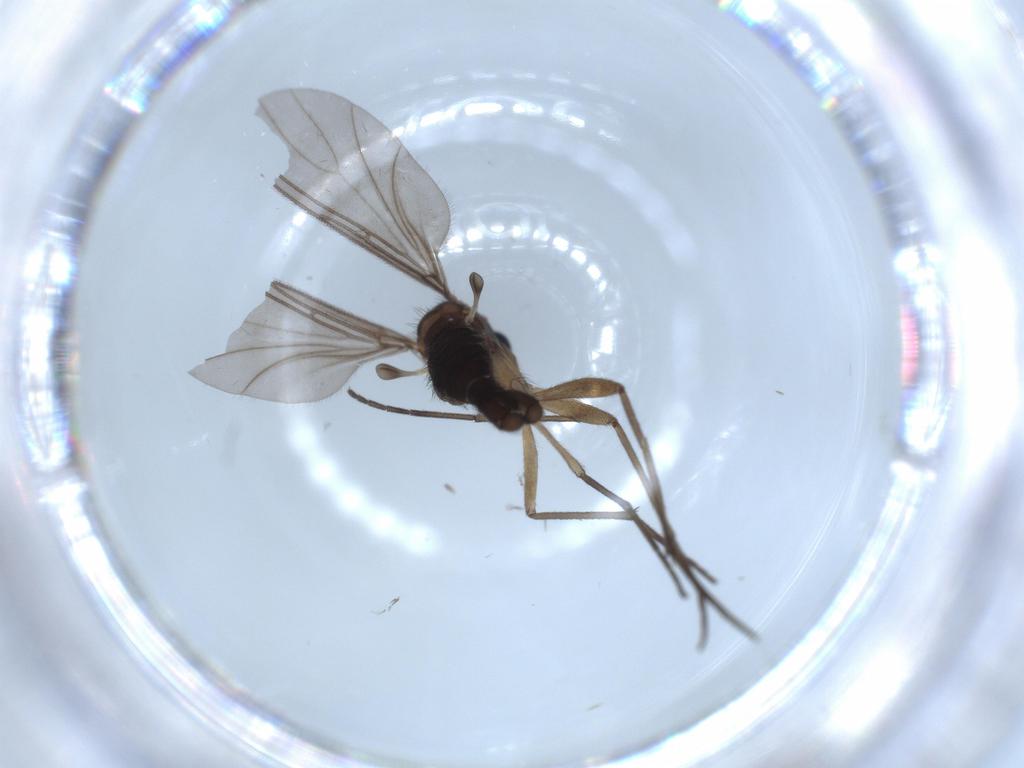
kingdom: Animalia
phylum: Arthropoda
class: Insecta
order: Diptera
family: Sciaridae
